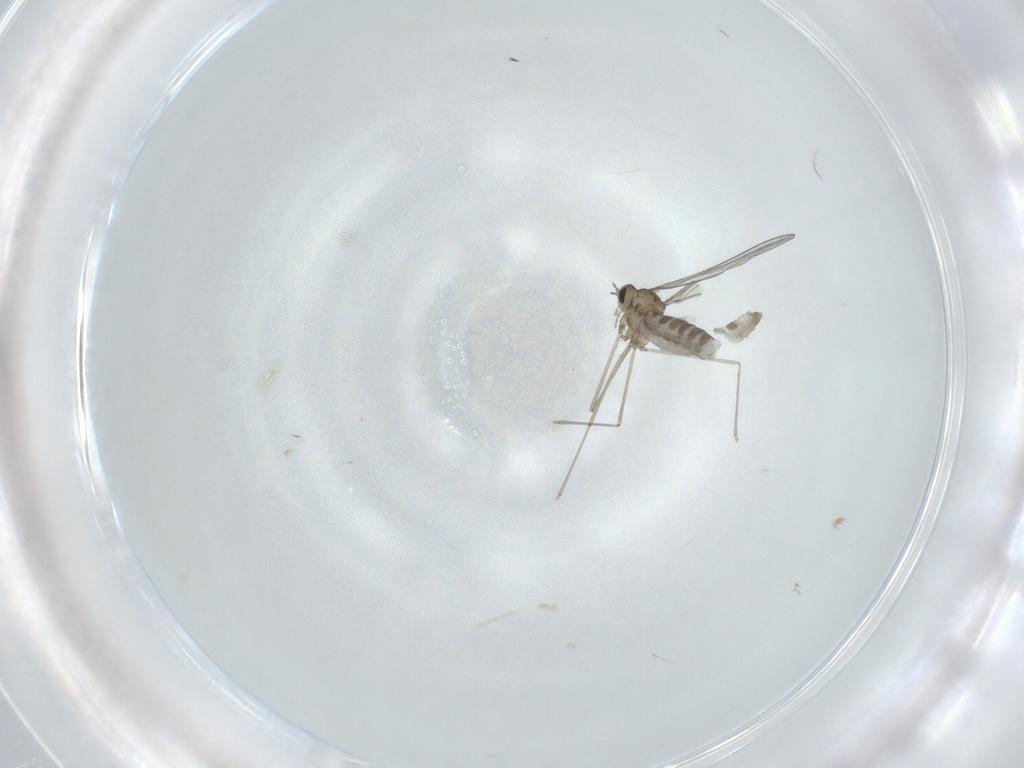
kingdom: Animalia
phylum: Arthropoda
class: Insecta
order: Diptera
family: Cecidomyiidae
